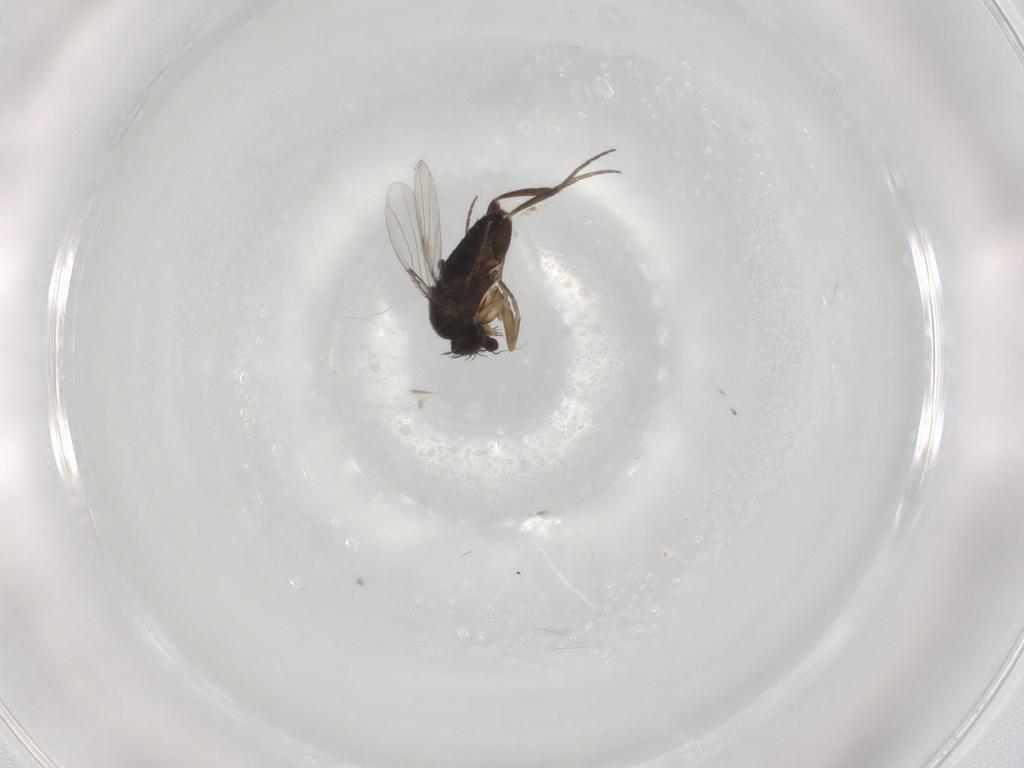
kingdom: Animalia
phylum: Arthropoda
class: Insecta
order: Diptera
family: Phoridae
